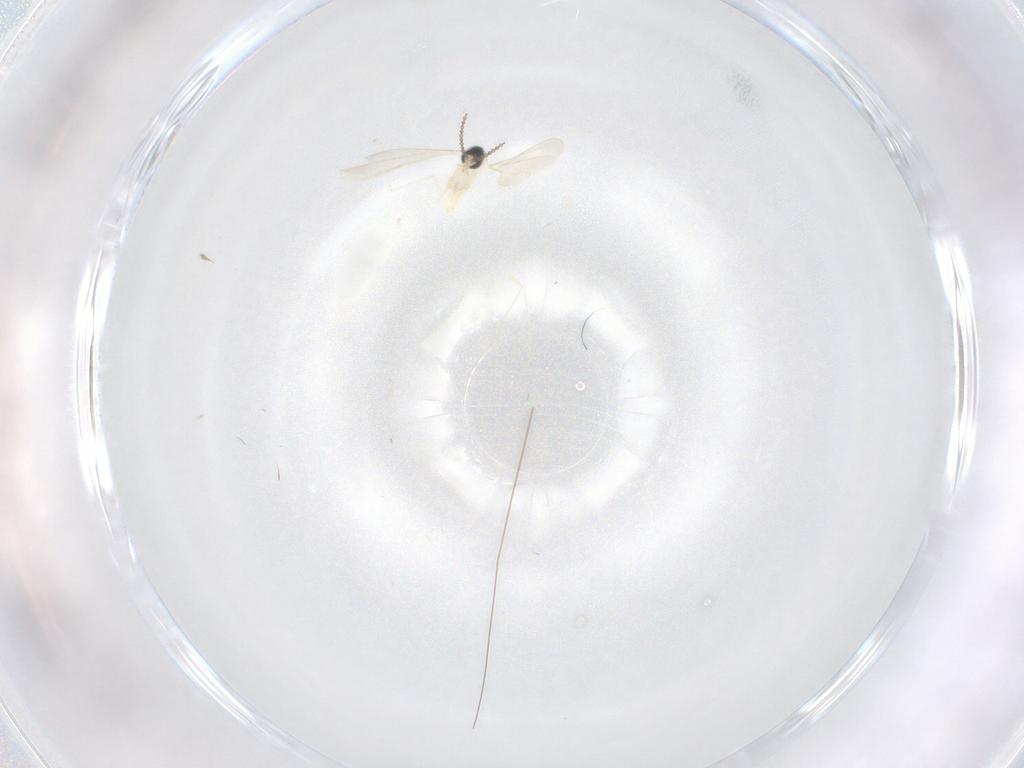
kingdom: Animalia
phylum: Arthropoda
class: Insecta
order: Diptera
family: Cecidomyiidae
